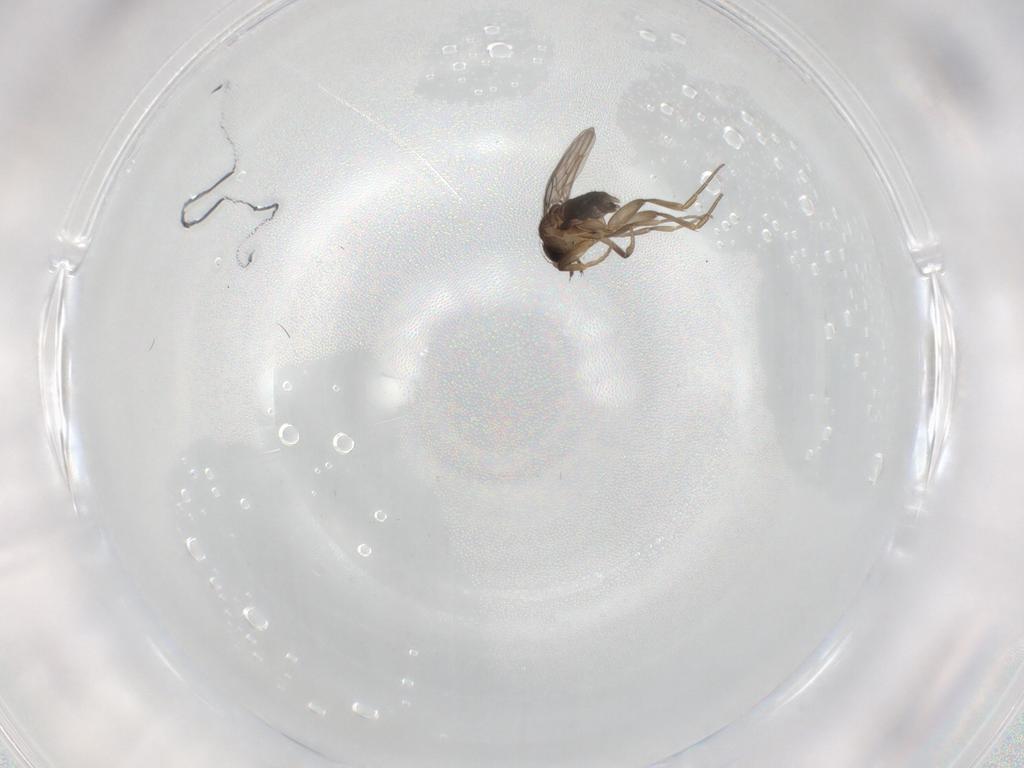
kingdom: Animalia
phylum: Arthropoda
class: Insecta
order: Diptera
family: Phoridae
